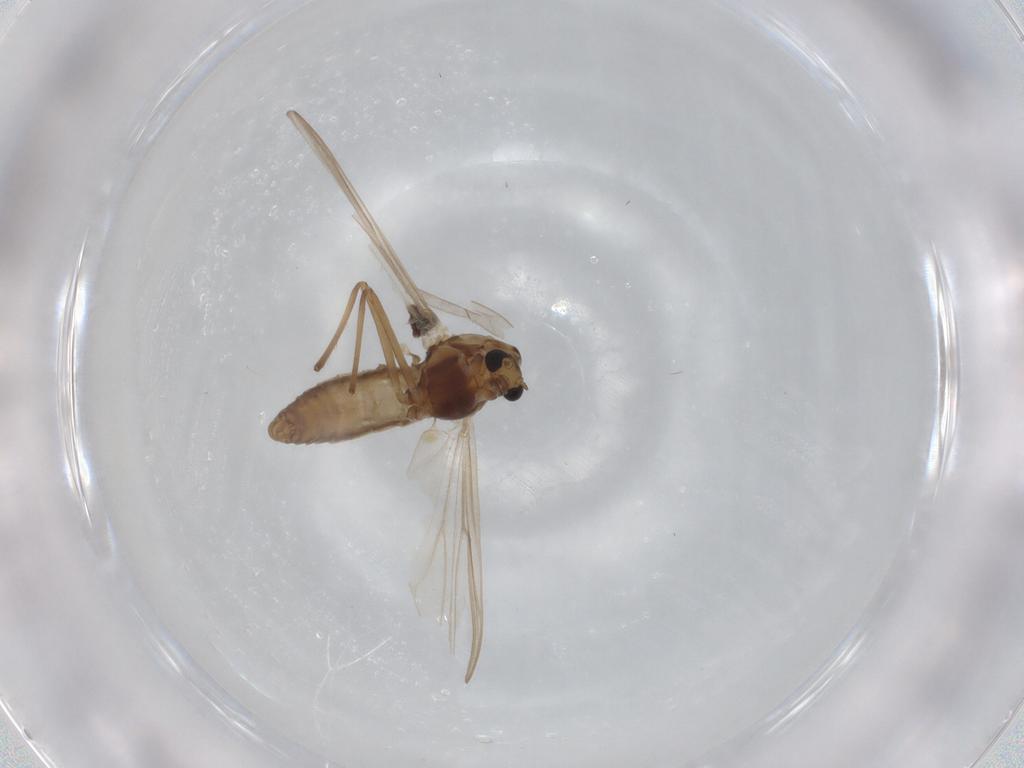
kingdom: Animalia
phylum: Arthropoda
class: Insecta
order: Diptera
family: Chironomidae
